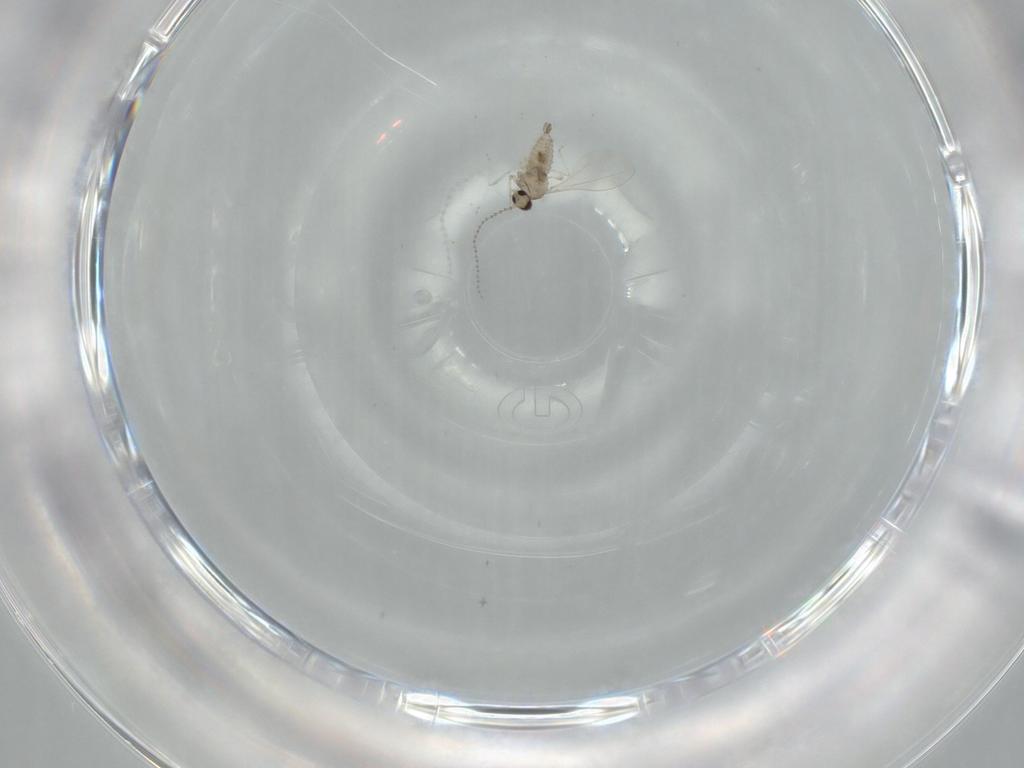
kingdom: Animalia
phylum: Arthropoda
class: Insecta
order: Diptera
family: Cecidomyiidae
